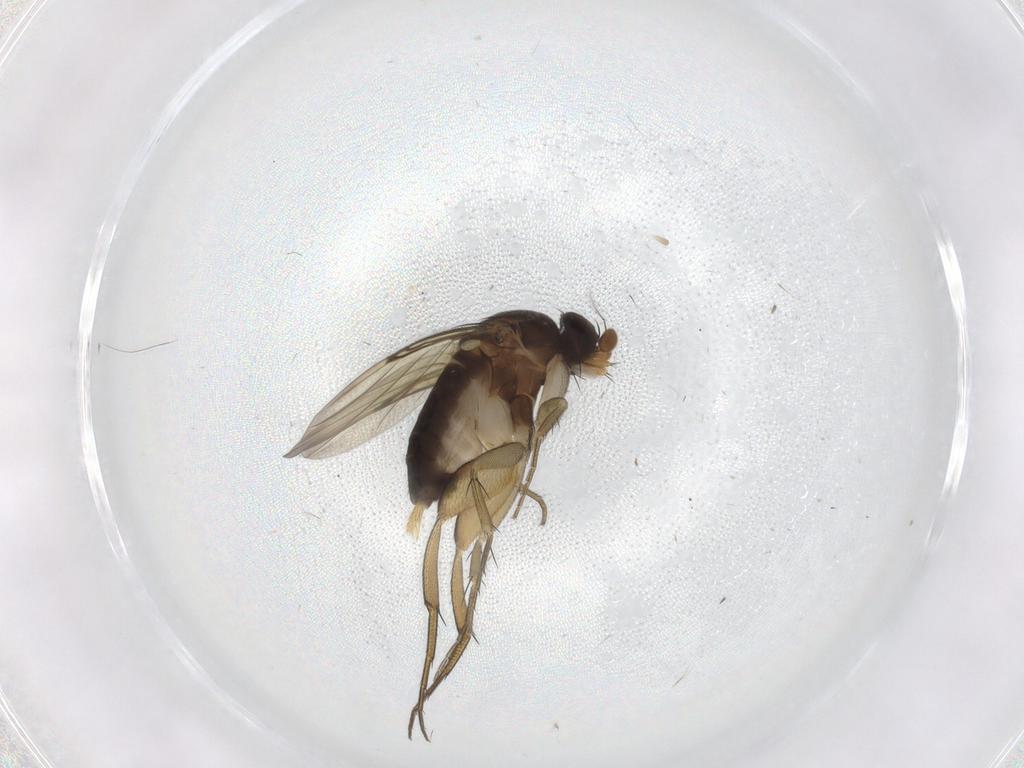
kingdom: Animalia
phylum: Arthropoda
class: Insecta
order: Diptera
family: Phoridae
